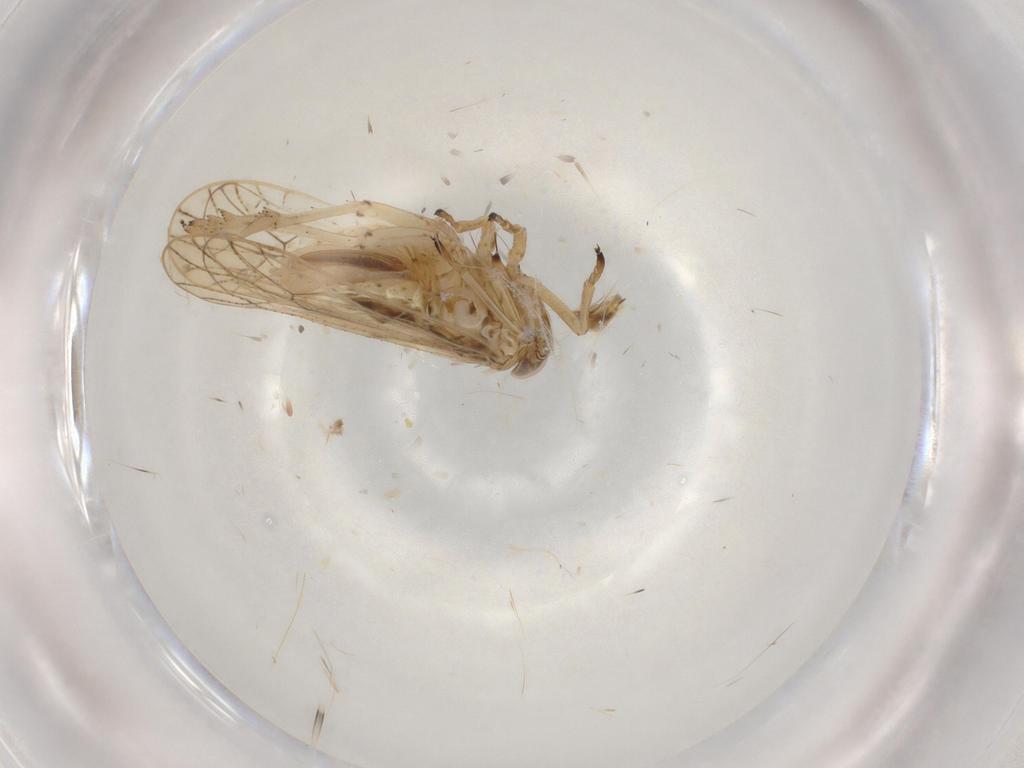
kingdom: Animalia
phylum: Arthropoda
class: Insecta
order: Hemiptera
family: Delphacidae
